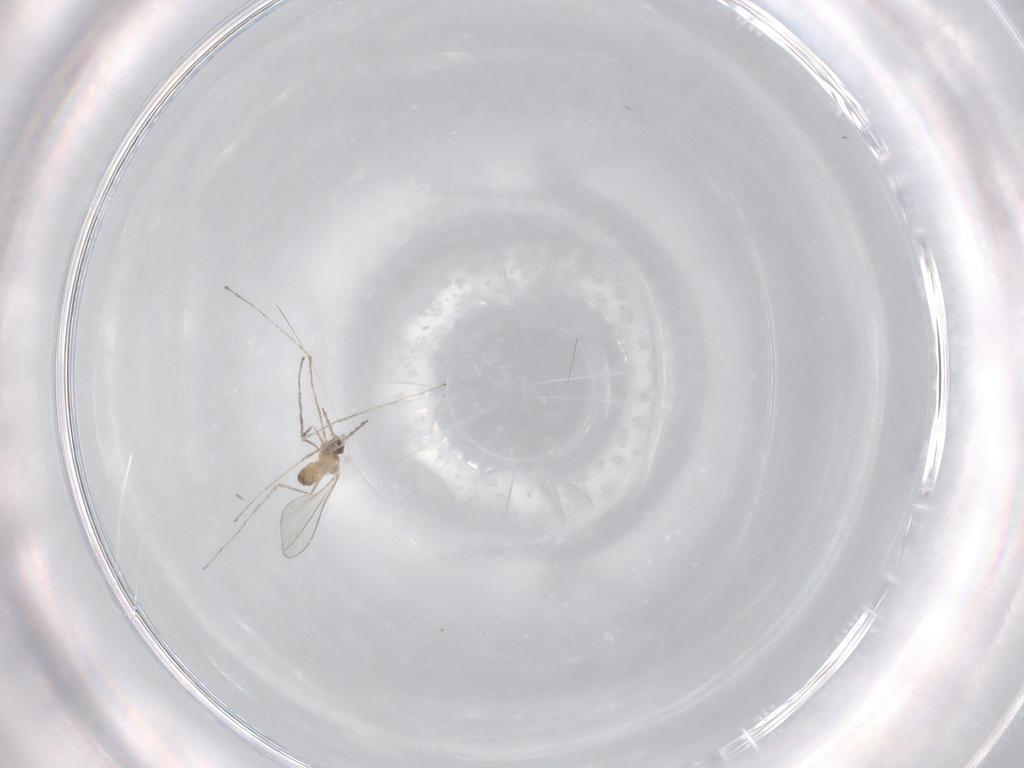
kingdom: Animalia
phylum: Arthropoda
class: Insecta
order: Diptera
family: Cecidomyiidae
